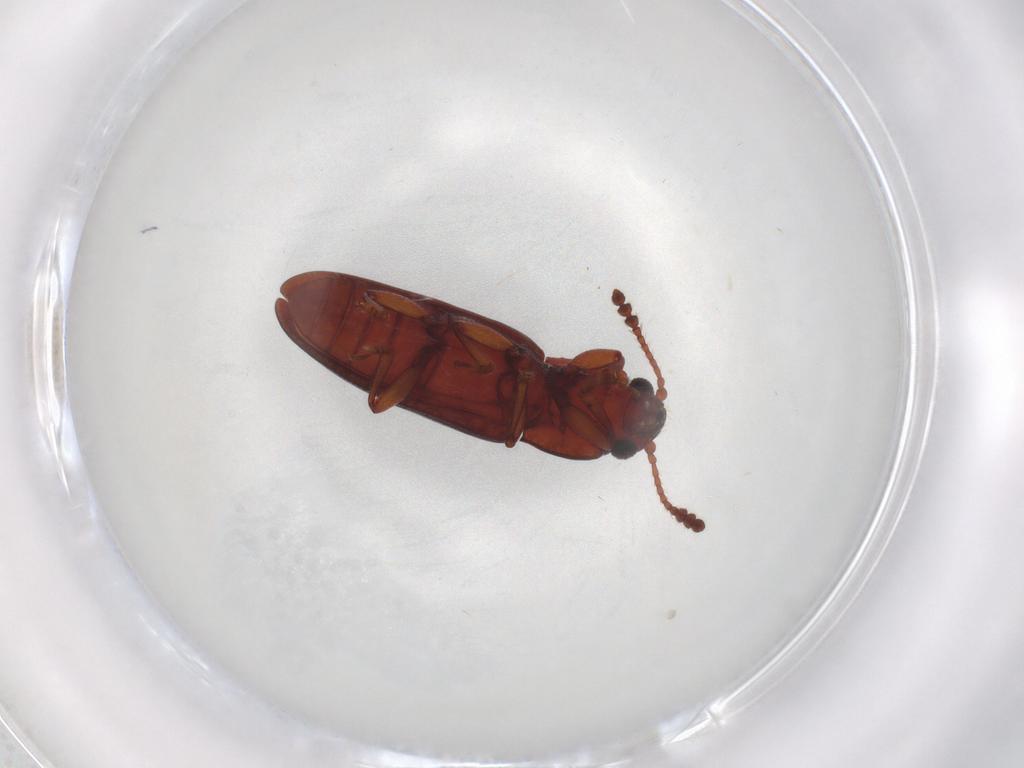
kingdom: Animalia
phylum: Arthropoda
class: Insecta
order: Coleoptera
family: Erotylidae
